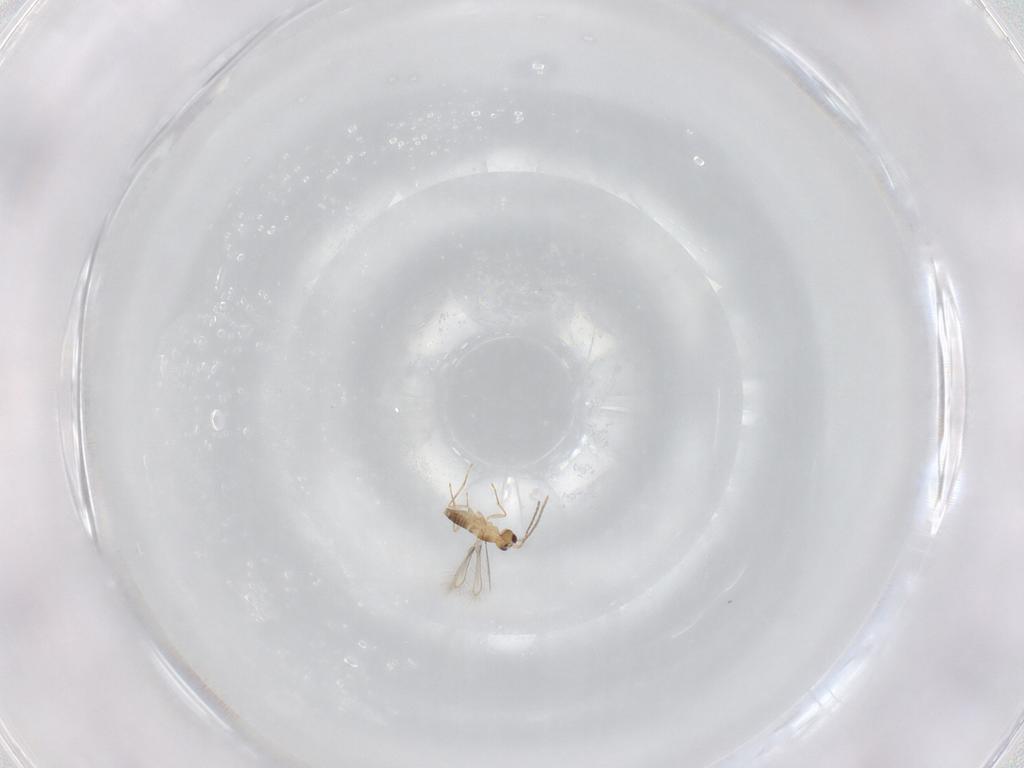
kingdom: Animalia
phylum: Arthropoda
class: Insecta
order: Hymenoptera
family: Mymaridae
